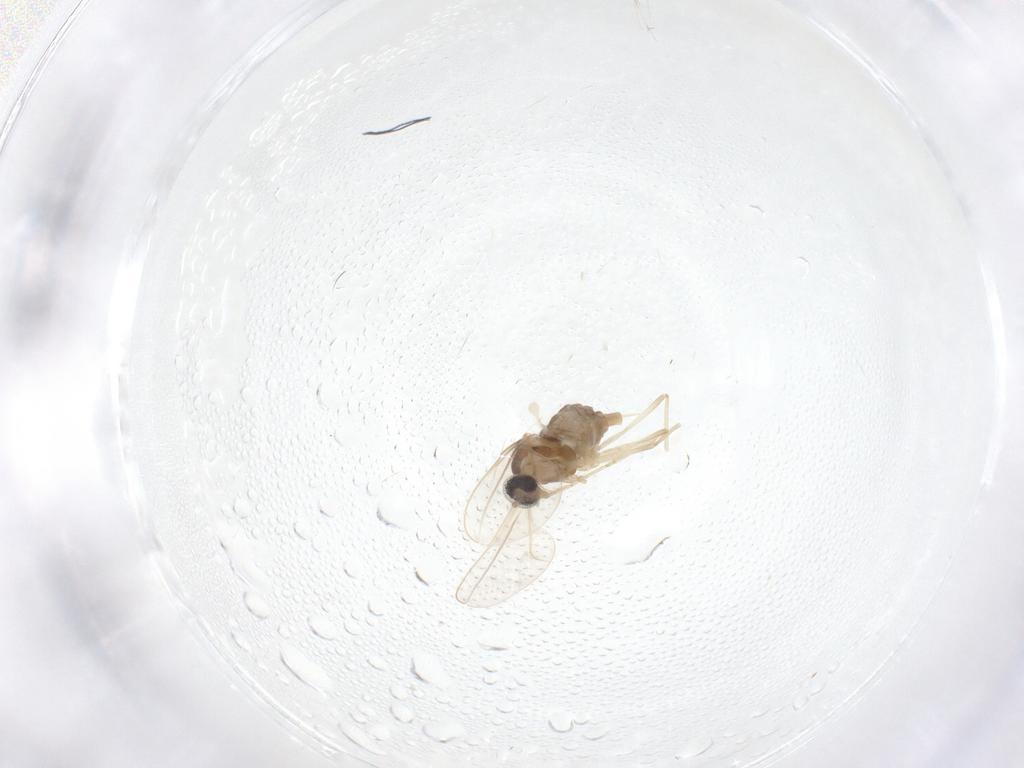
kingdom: Animalia
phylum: Arthropoda
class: Insecta
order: Diptera
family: Cecidomyiidae
